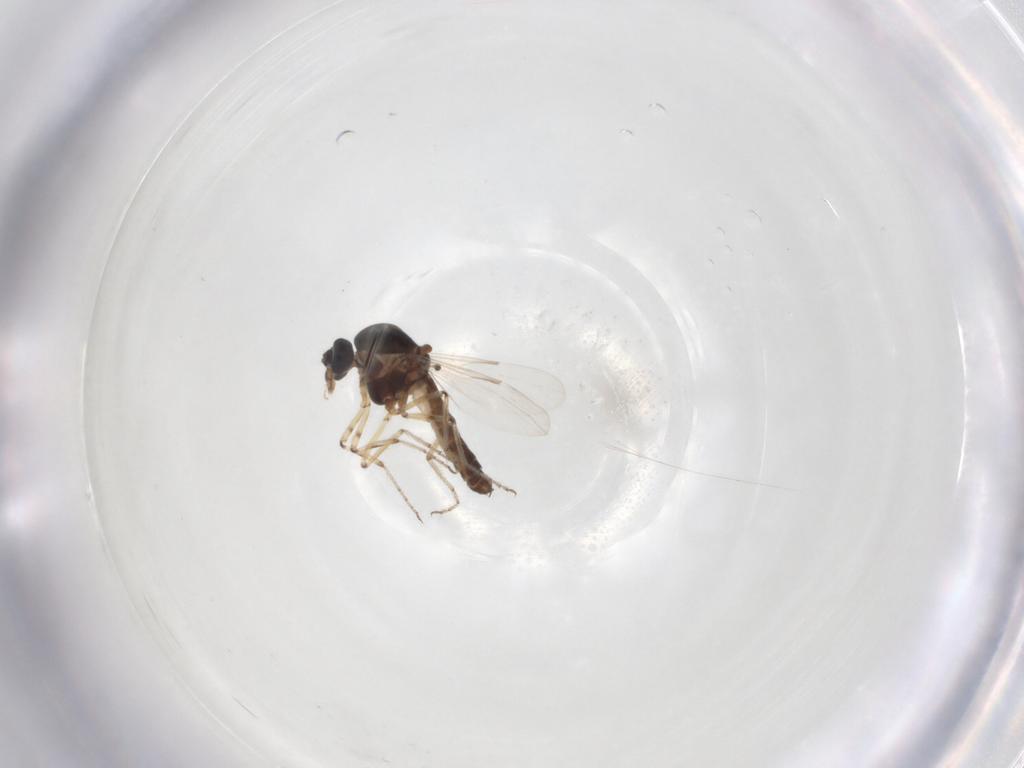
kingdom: Animalia
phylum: Arthropoda
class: Insecta
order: Diptera
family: Ceratopogonidae
